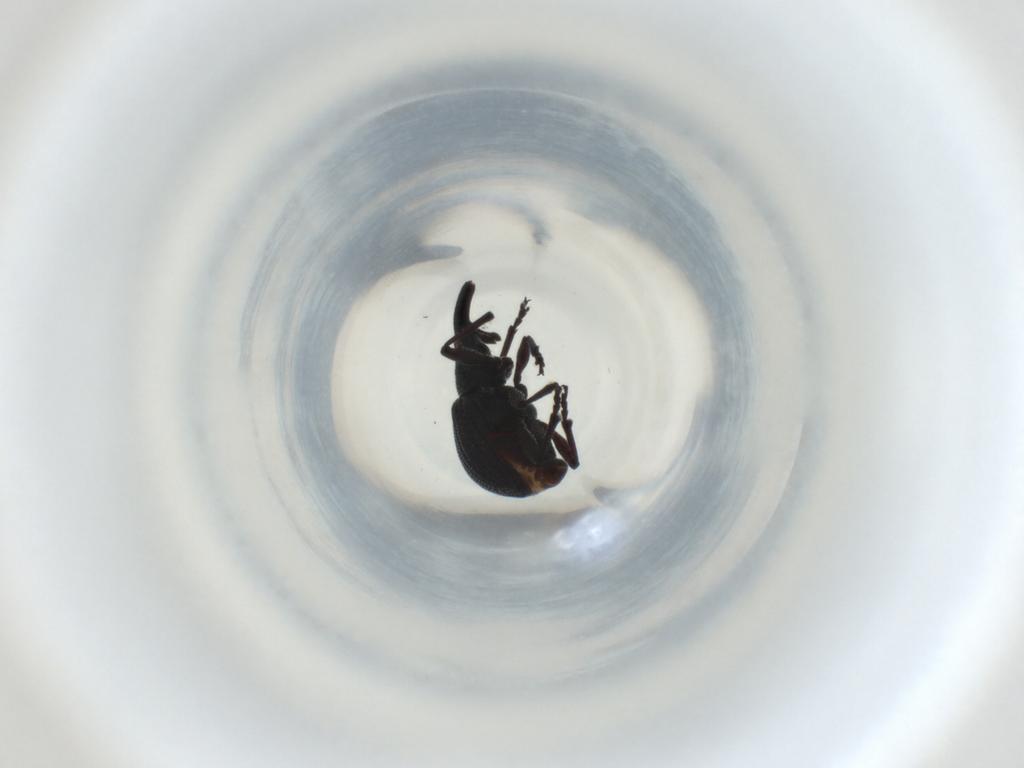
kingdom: Animalia
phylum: Arthropoda
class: Insecta
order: Coleoptera
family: Brentidae
